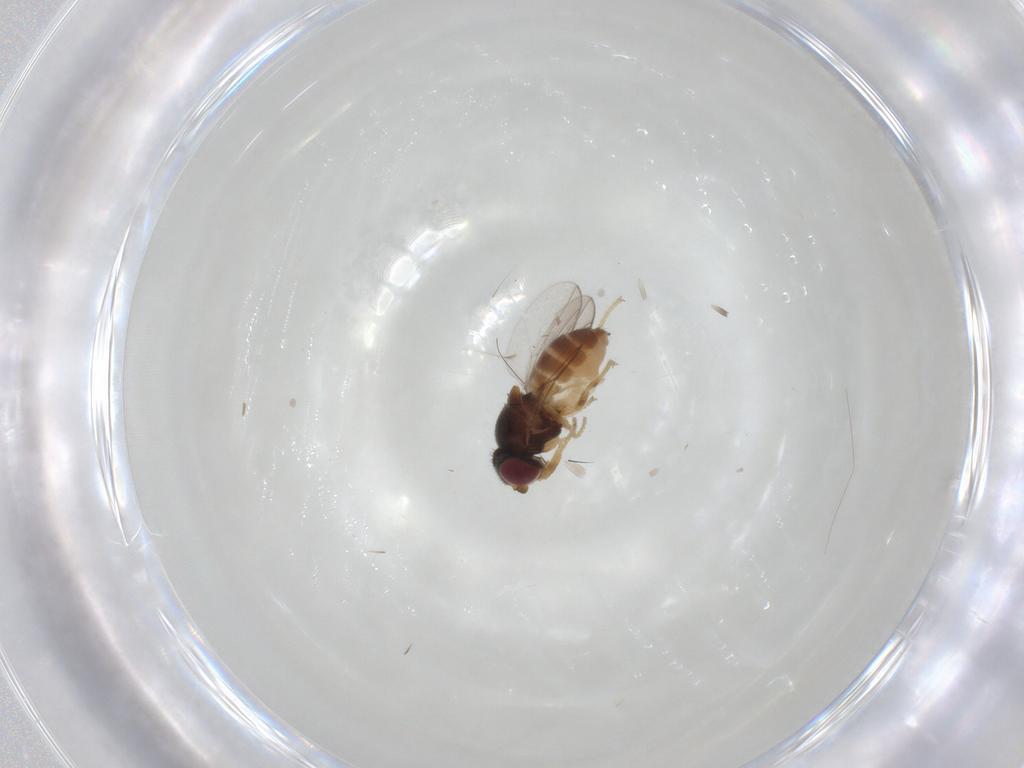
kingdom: Animalia
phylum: Arthropoda
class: Insecta
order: Diptera
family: Chloropidae
